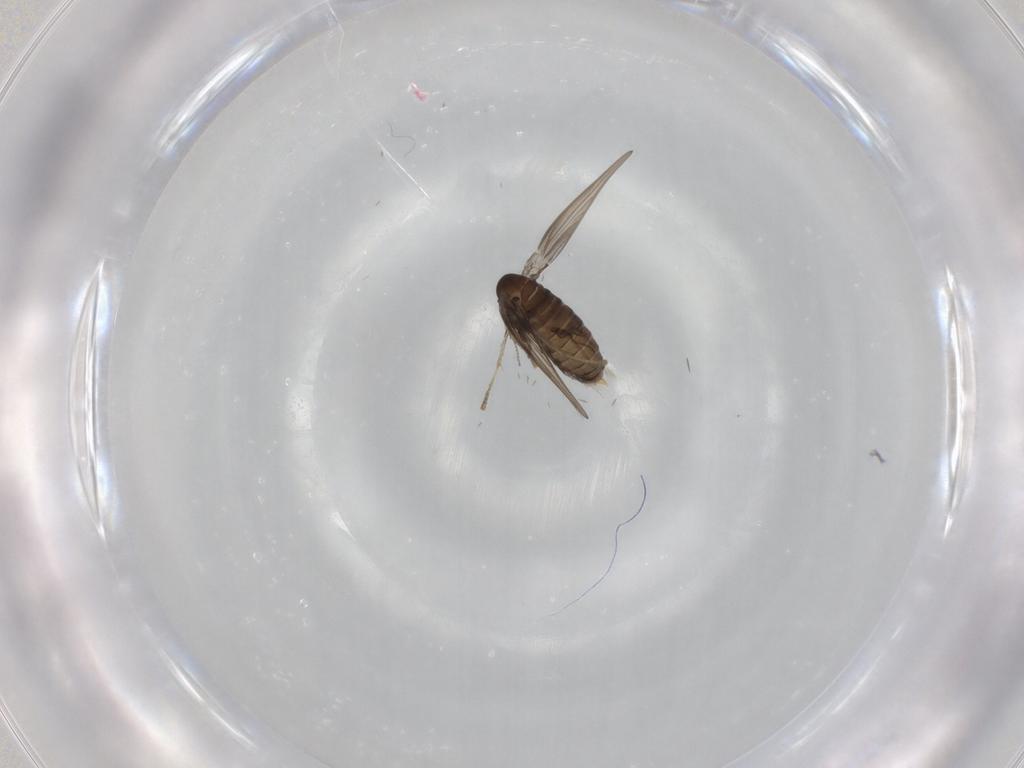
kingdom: Animalia
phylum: Arthropoda
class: Insecta
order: Diptera
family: Psychodidae
